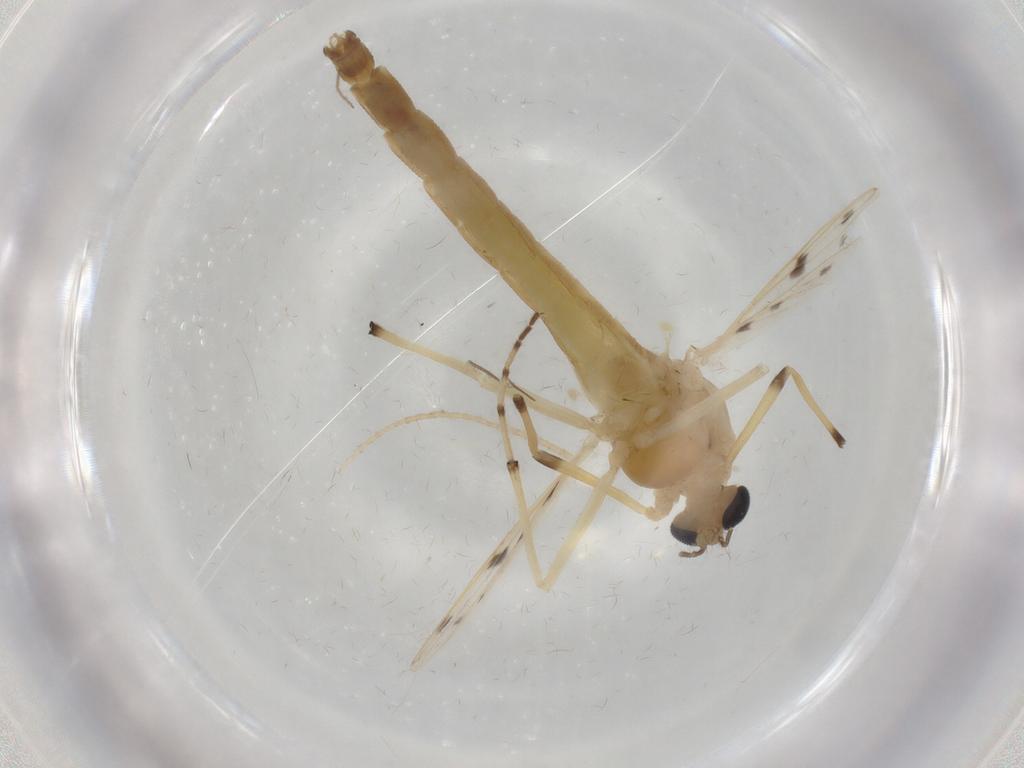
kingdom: Animalia
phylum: Arthropoda
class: Insecta
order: Diptera
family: Chironomidae
